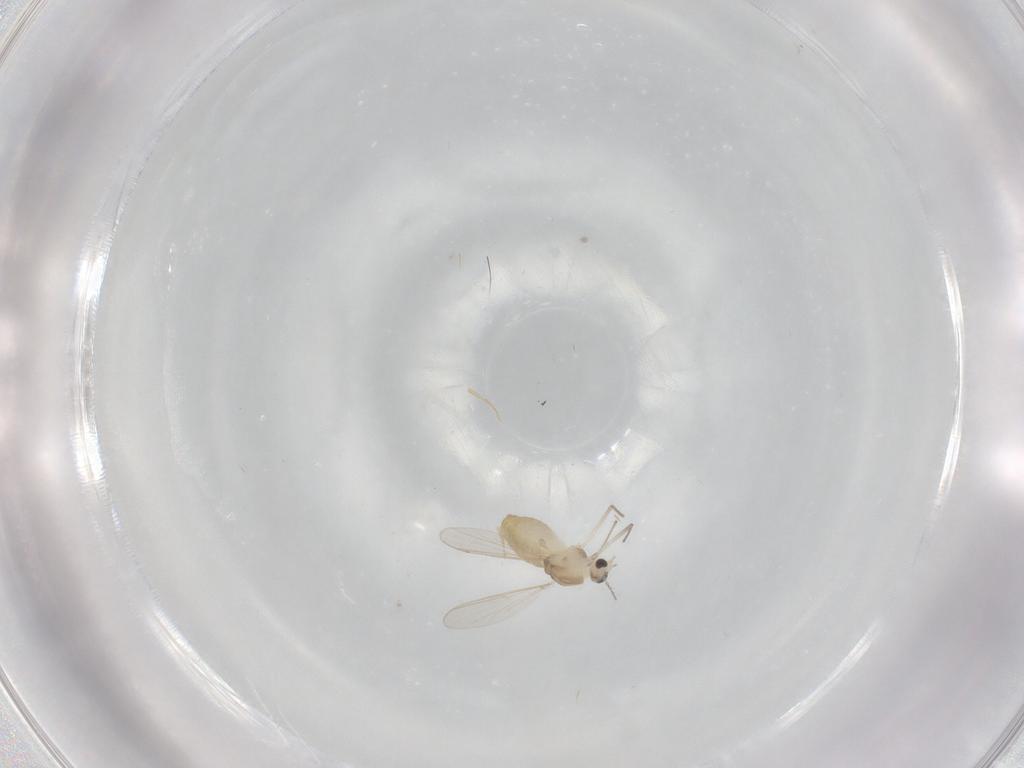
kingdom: Animalia
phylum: Arthropoda
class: Insecta
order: Diptera
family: Chironomidae
